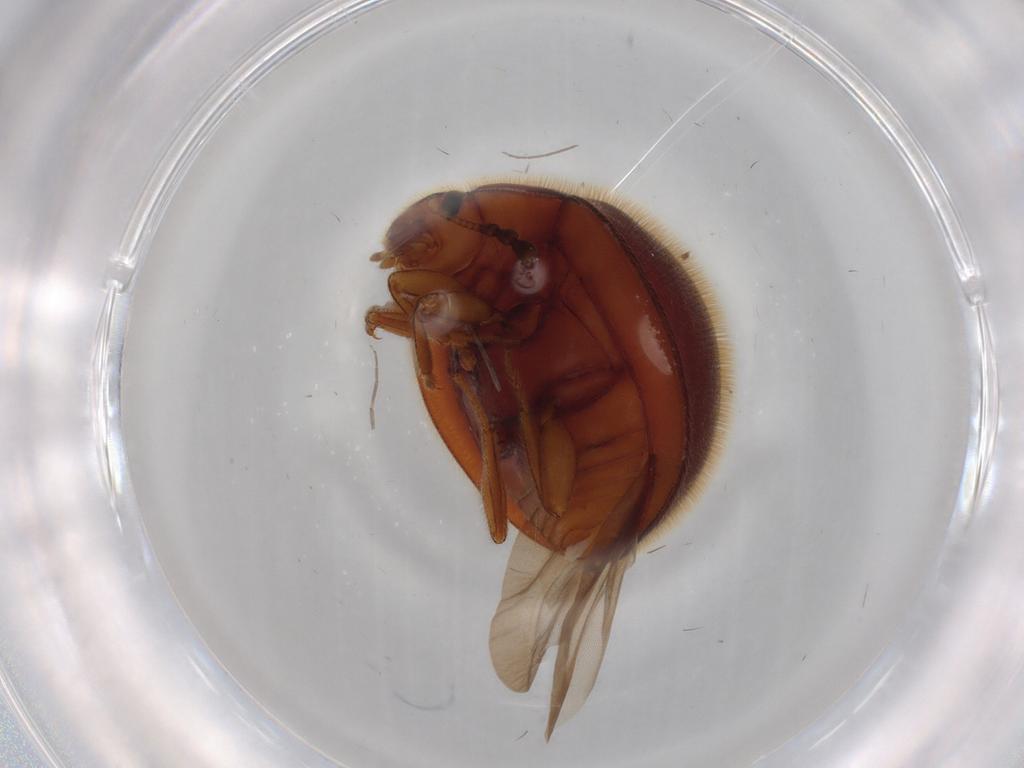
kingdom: Animalia
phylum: Arthropoda
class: Insecta
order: Coleoptera
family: Anamorphidae
